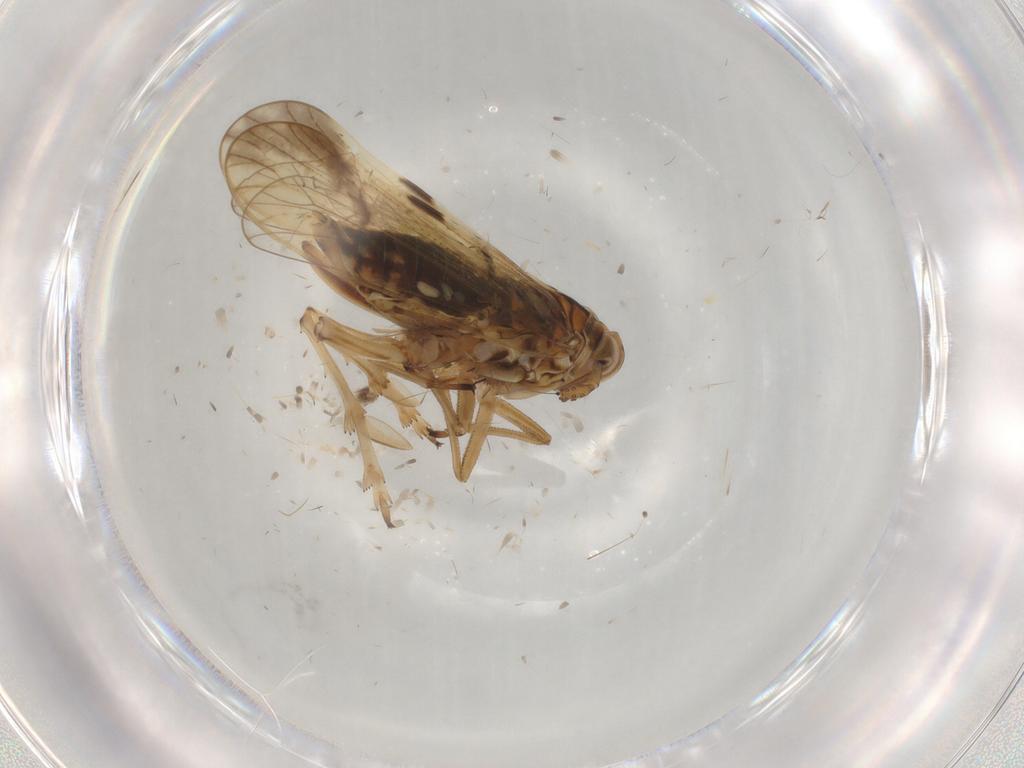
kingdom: Animalia
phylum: Arthropoda
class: Insecta
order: Hemiptera
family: Delphacidae
